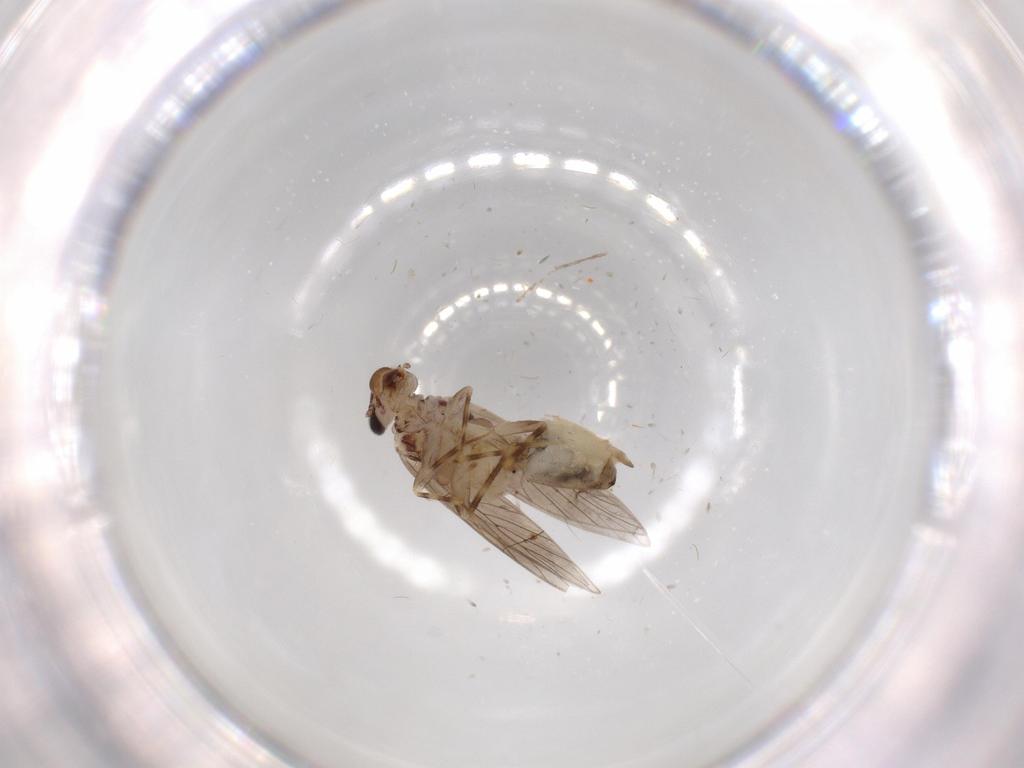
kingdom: Animalia
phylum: Arthropoda
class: Insecta
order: Psocodea
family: Lepidopsocidae
